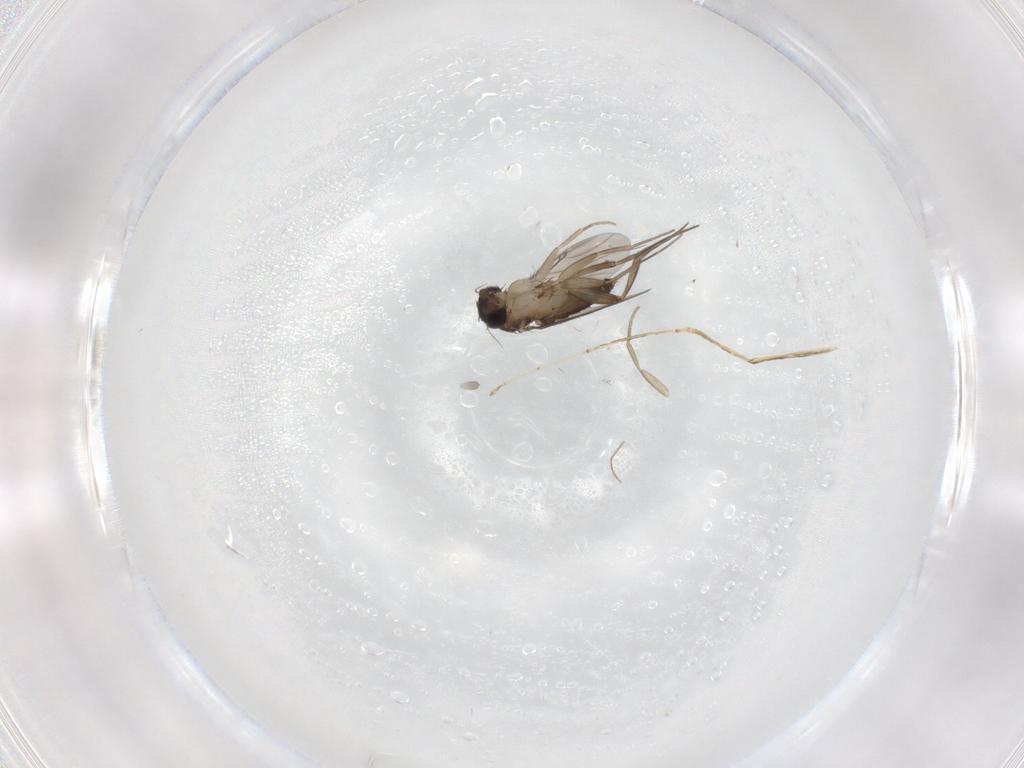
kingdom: Animalia
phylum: Arthropoda
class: Insecta
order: Diptera
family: Phoridae
